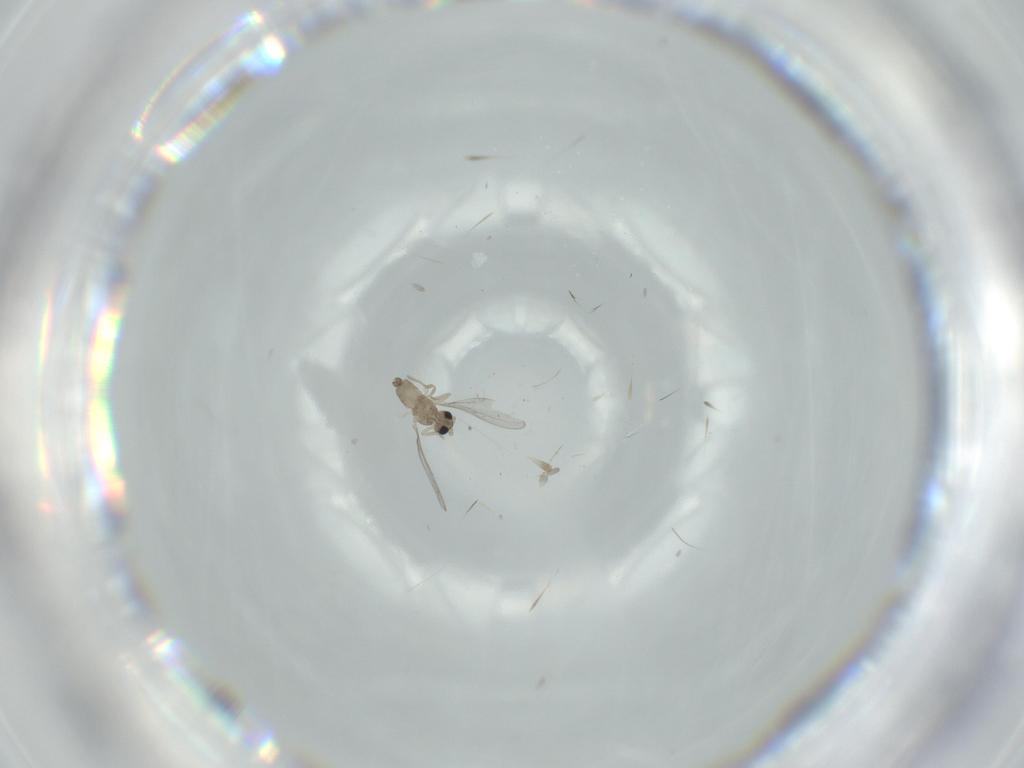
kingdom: Animalia
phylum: Arthropoda
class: Insecta
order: Diptera
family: Cecidomyiidae
